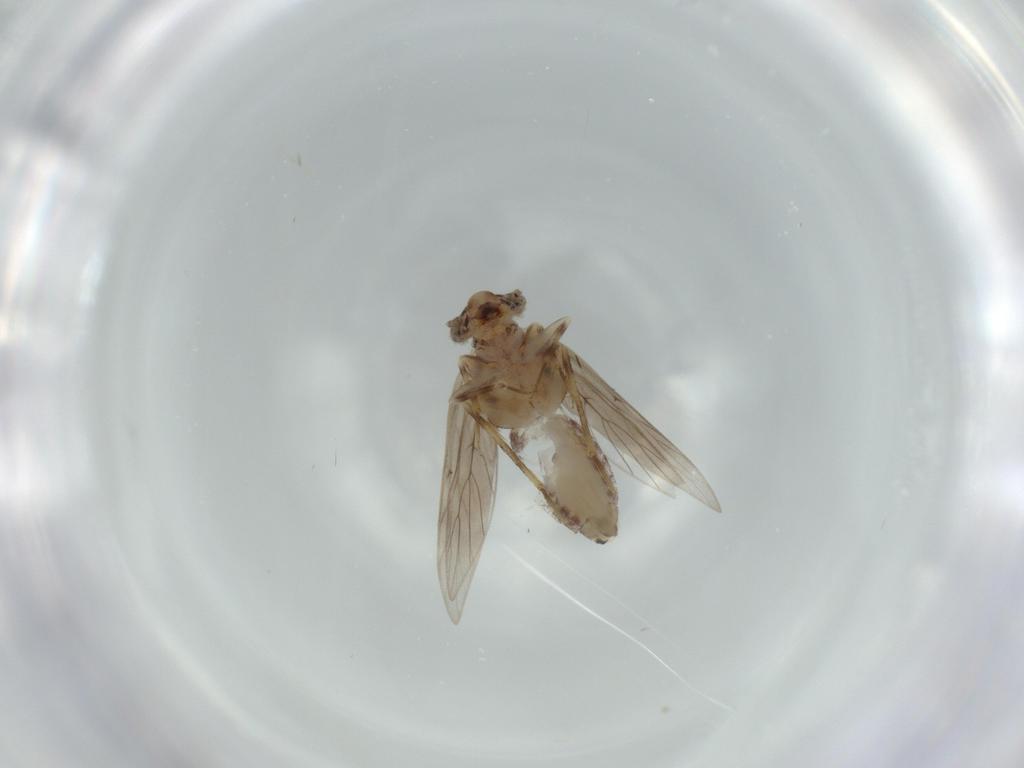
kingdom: Animalia
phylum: Arthropoda
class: Insecta
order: Psocodea
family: Lepidopsocidae
